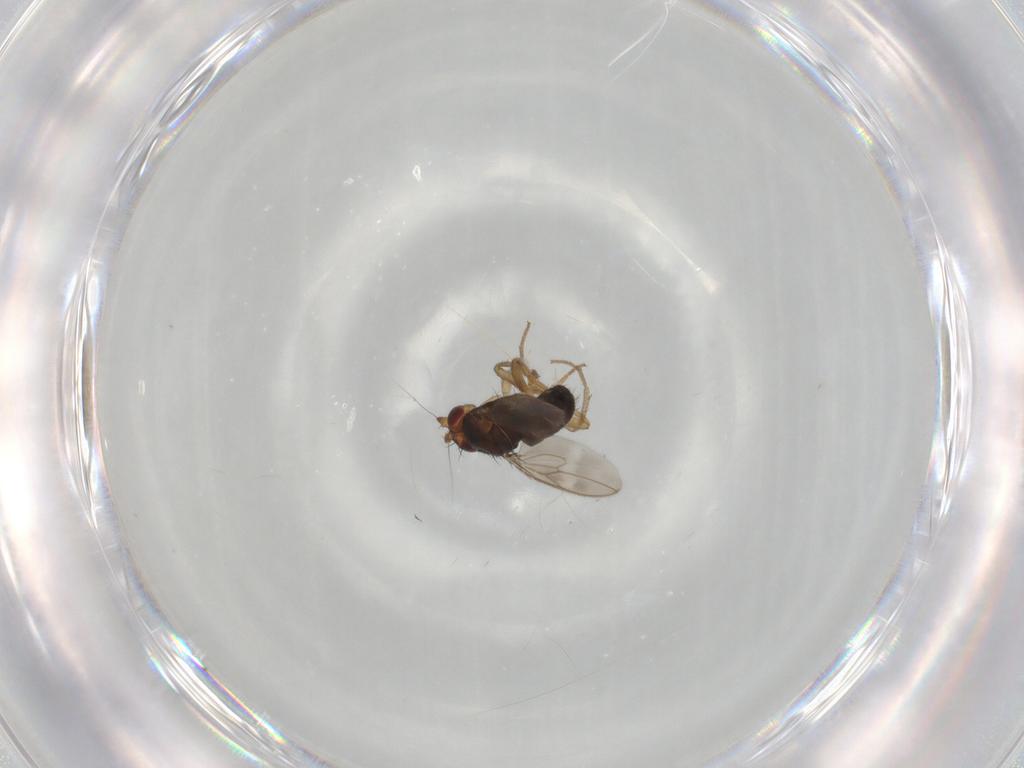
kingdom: Animalia
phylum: Arthropoda
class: Insecta
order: Diptera
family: Sphaeroceridae
